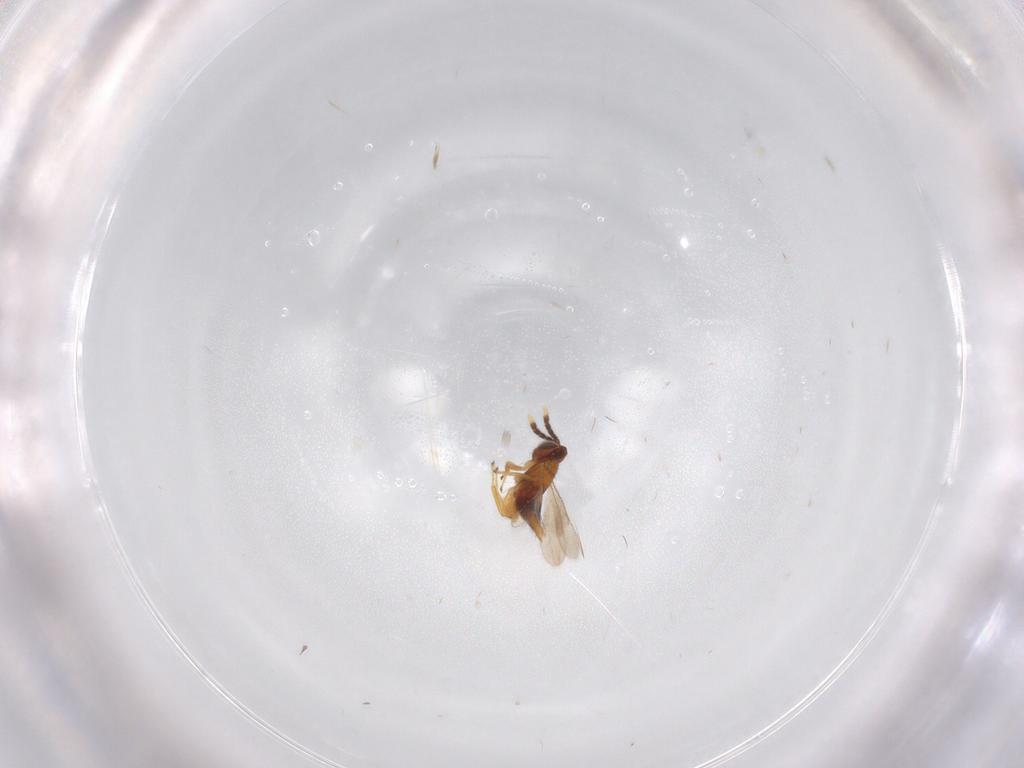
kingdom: Animalia
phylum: Arthropoda
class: Insecta
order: Hymenoptera
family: Aphelinidae
